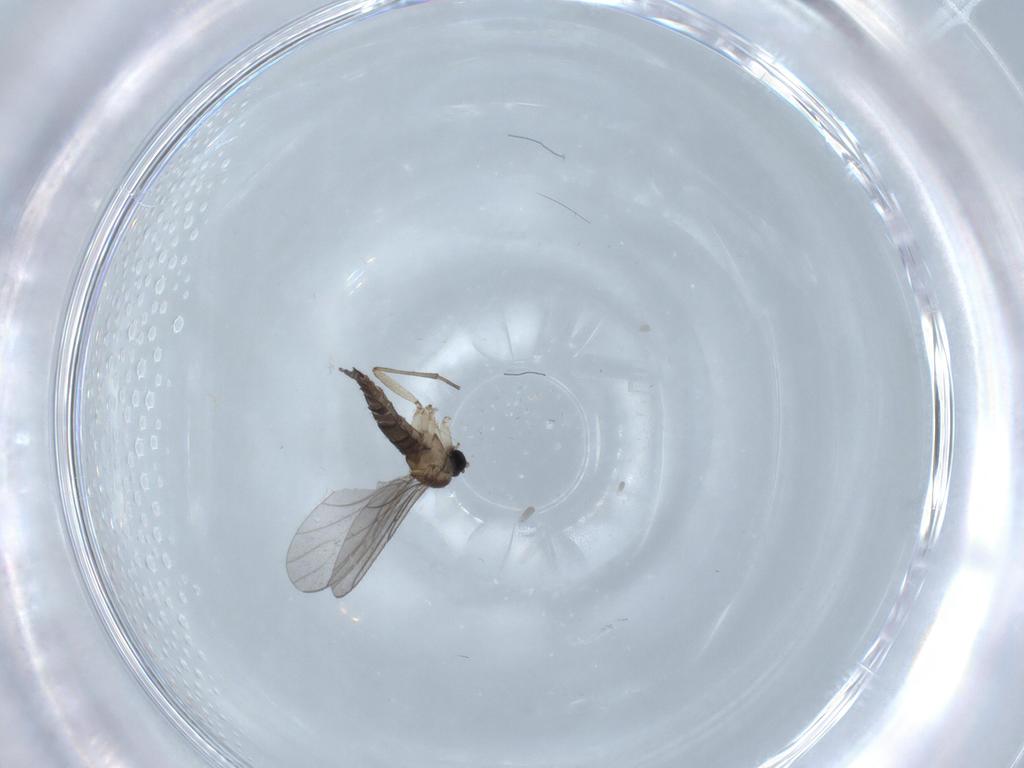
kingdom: Animalia
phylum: Arthropoda
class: Insecta
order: Diptera
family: Sciaridae
